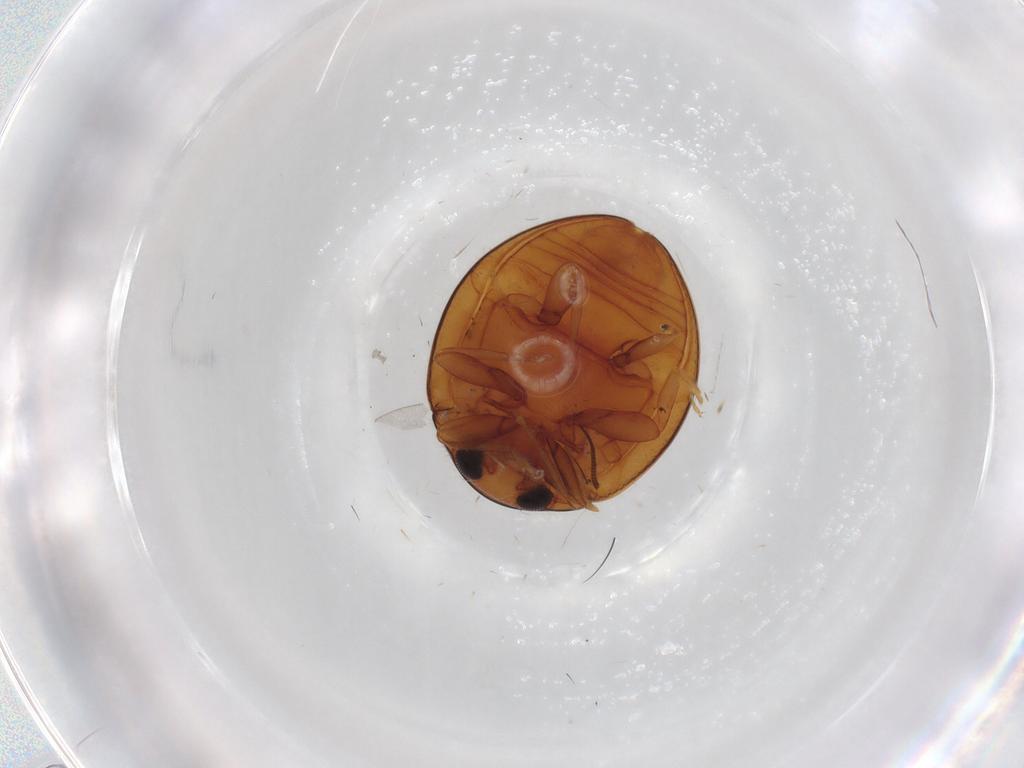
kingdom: Animalia
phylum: Arthropoda
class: Insecta
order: Coleoptera
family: Coccinellidae
